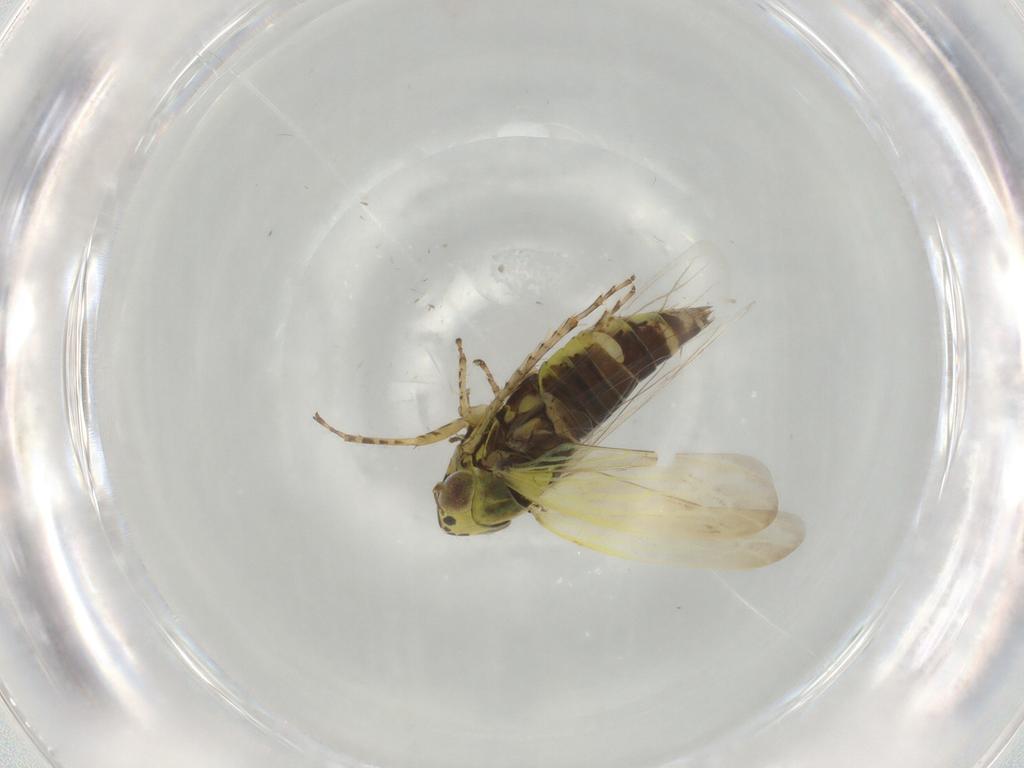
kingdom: Animalia
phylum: Arthropoda
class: Insecta
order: Hemiptera
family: Cicadellidae
